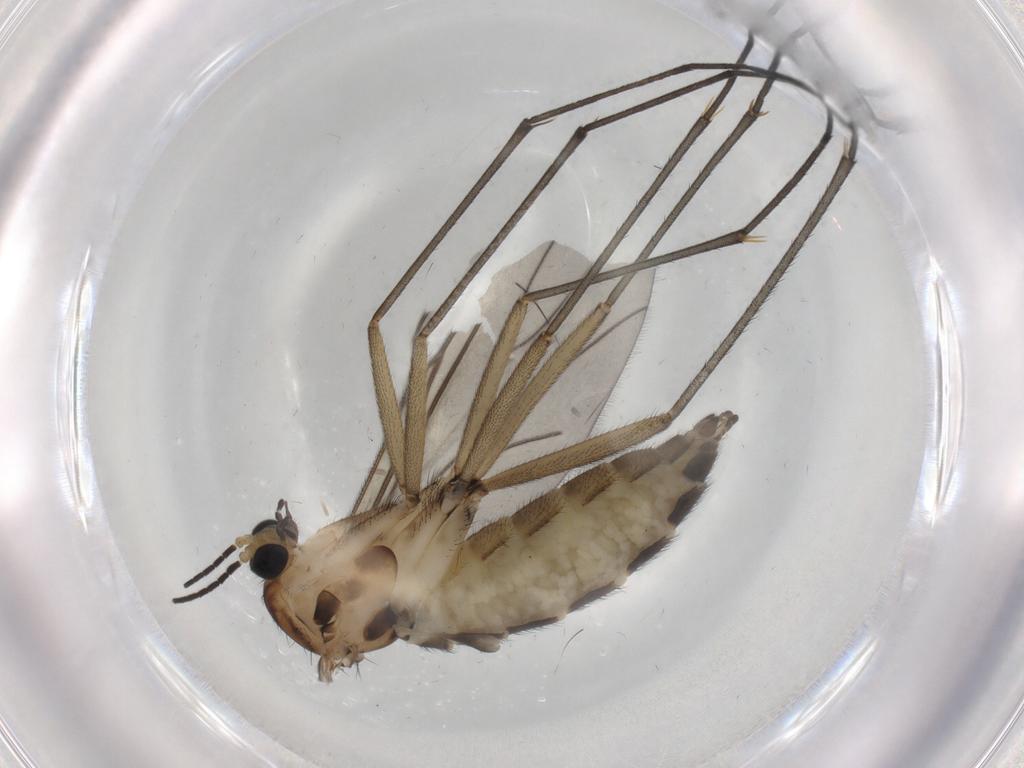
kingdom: Animalia
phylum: Arthropoda
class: Insecta
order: Diptera
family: Sciaridae
